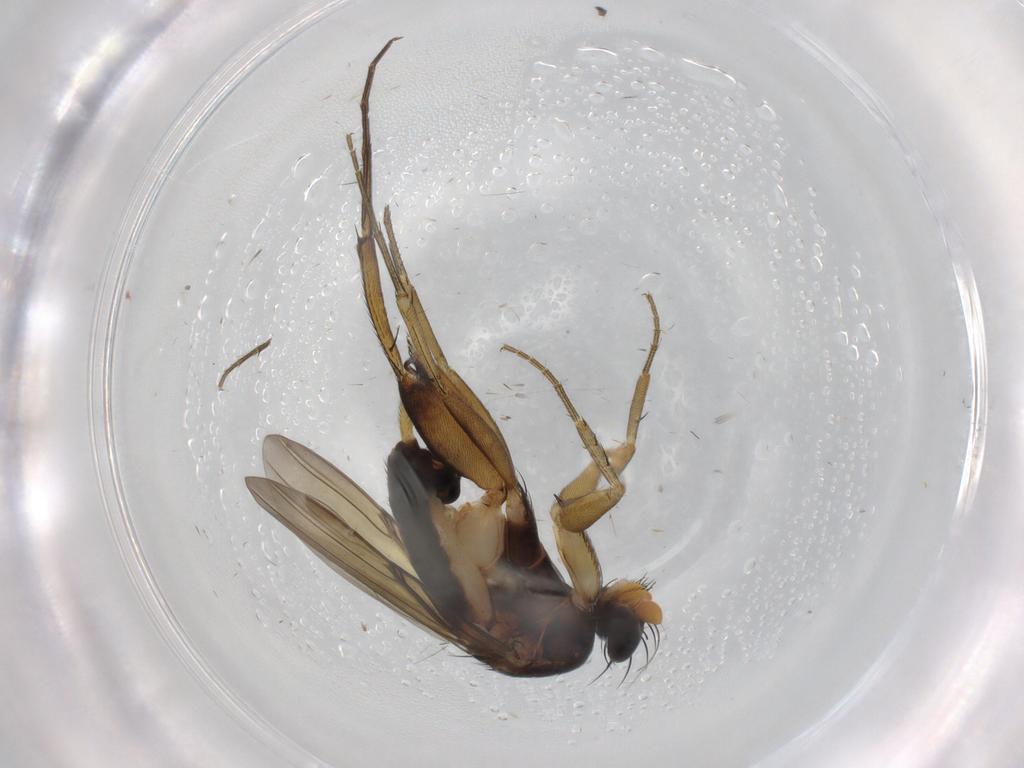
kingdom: Animalia
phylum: Arthropoda
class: Insecta
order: Diptera
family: Phoridae
